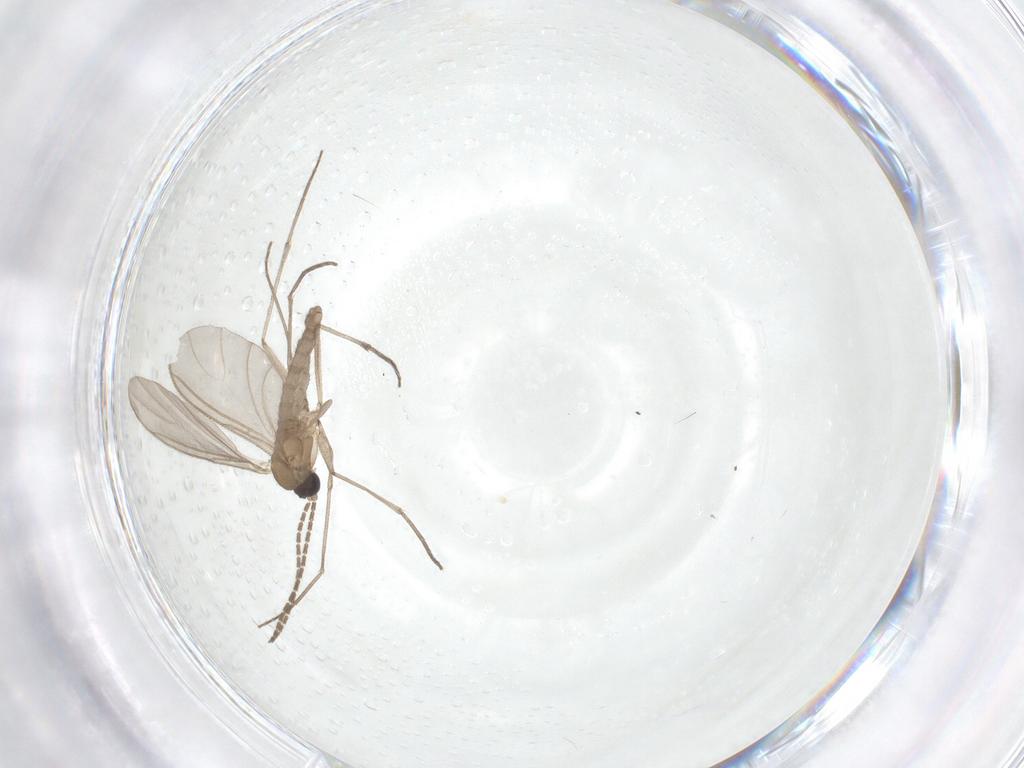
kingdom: Animalia
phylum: Arthropoda
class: Insecta
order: Diptera
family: Sciaridae
